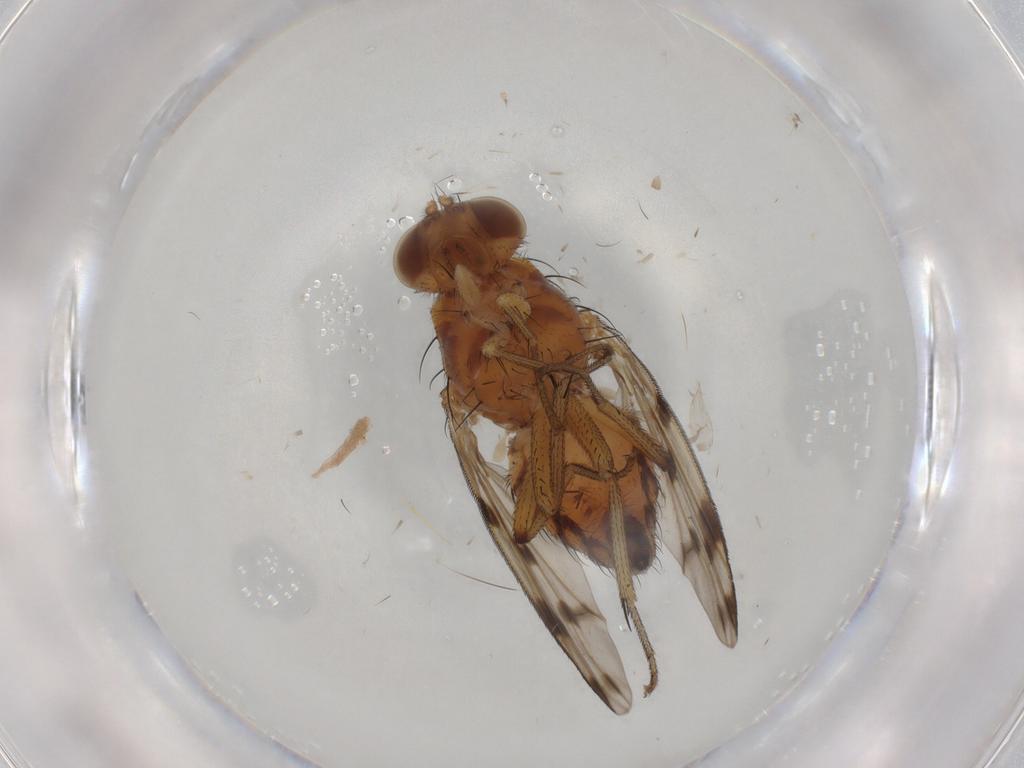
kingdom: Animalia
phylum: Arthropoda
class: Insecta
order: Diptera
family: Lauxaniidae
